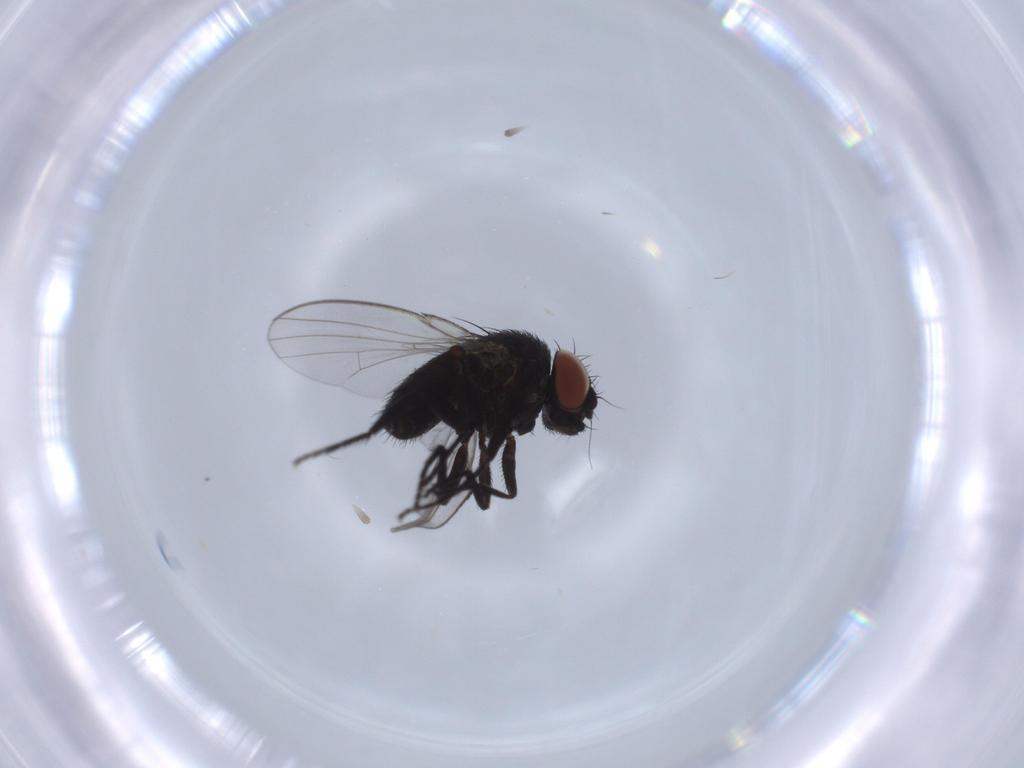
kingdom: Animalia
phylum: Arthropoda
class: Insecta
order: Diptera
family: Milichiidae
